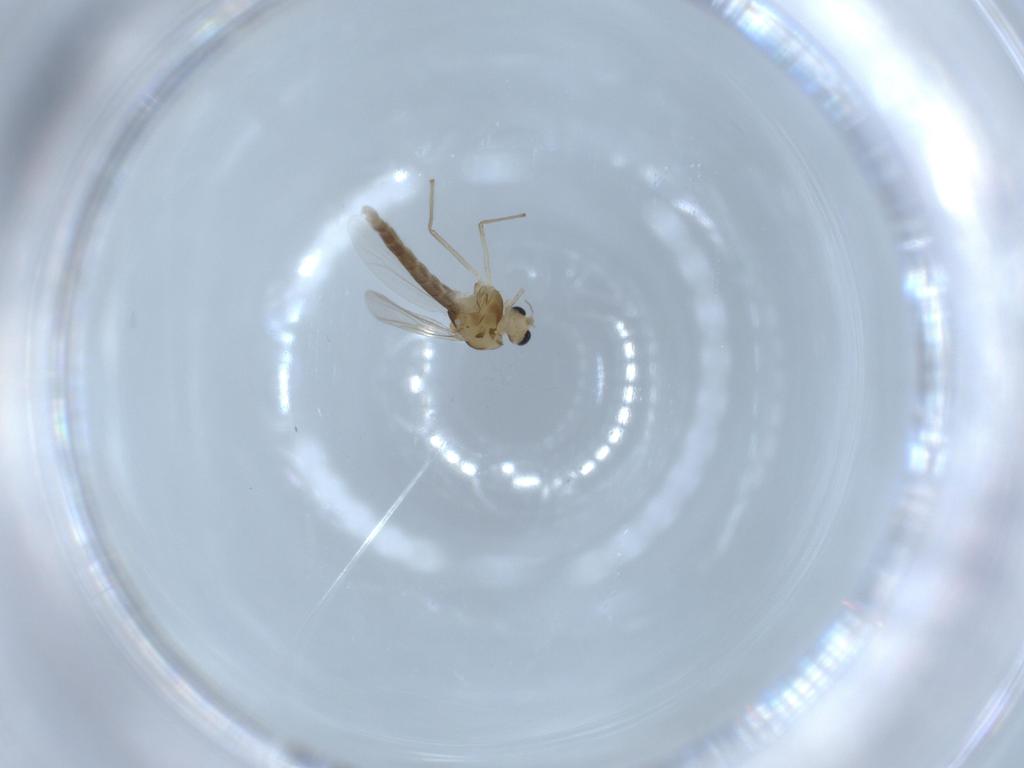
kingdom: Animalia
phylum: Arthropoda
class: Insecta
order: Diptera
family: Chironomidae
